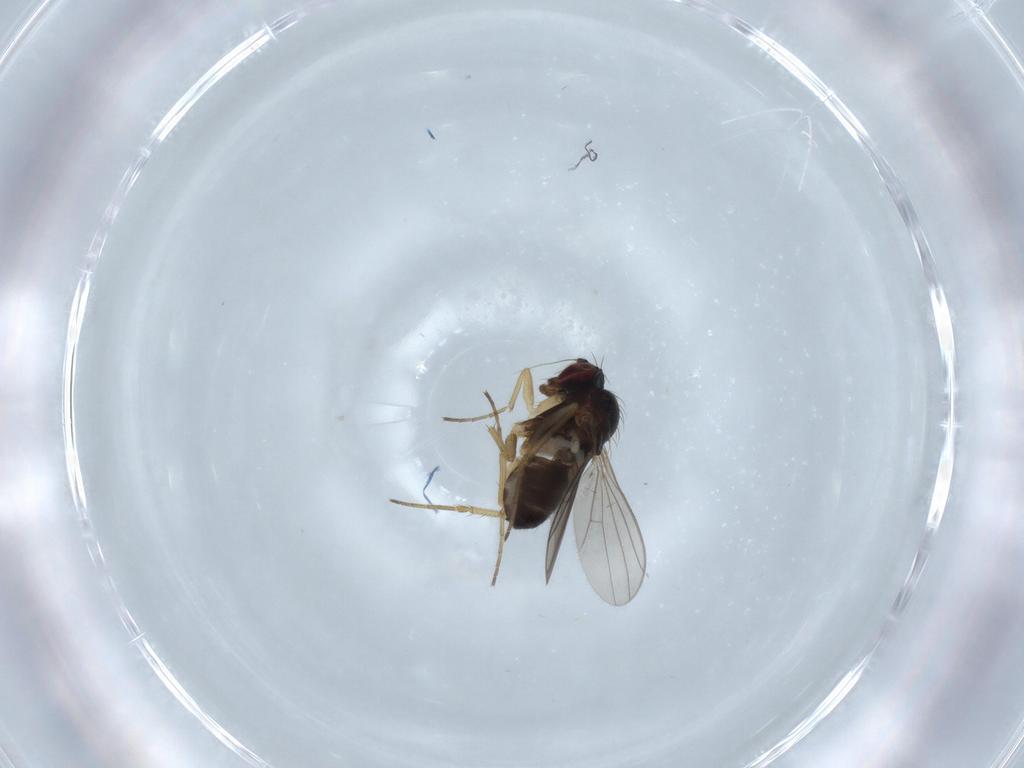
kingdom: Animalia
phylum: Arthropoda
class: Insecta
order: Diptera
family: Dolichopodidae
